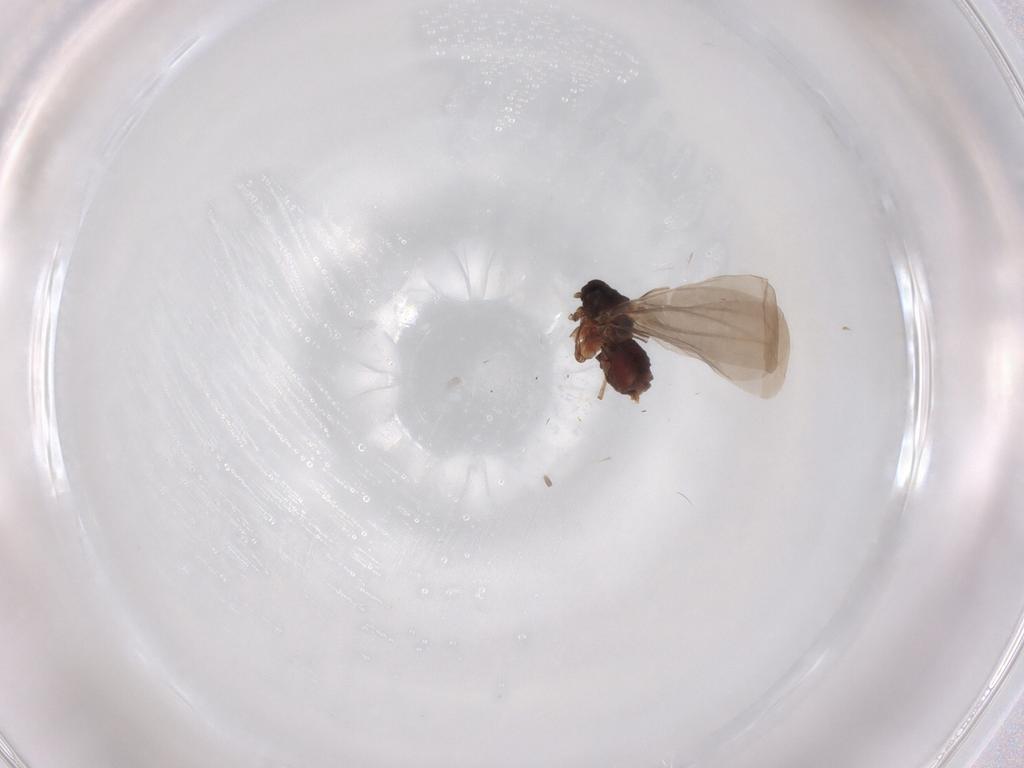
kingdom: Animalia
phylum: Arthropoda
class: Insecta
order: Hemiptera
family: Aleyrodidae
